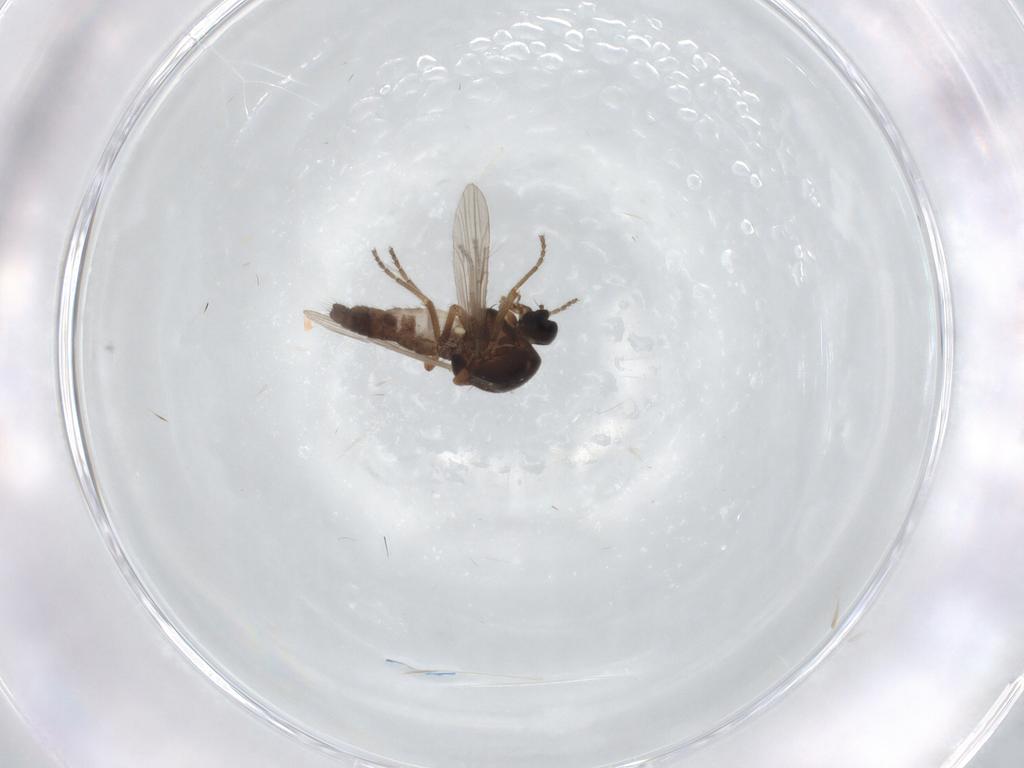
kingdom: Animalia
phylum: Arthropoda
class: Insecta
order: Diptera
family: Ceratopogonidae
